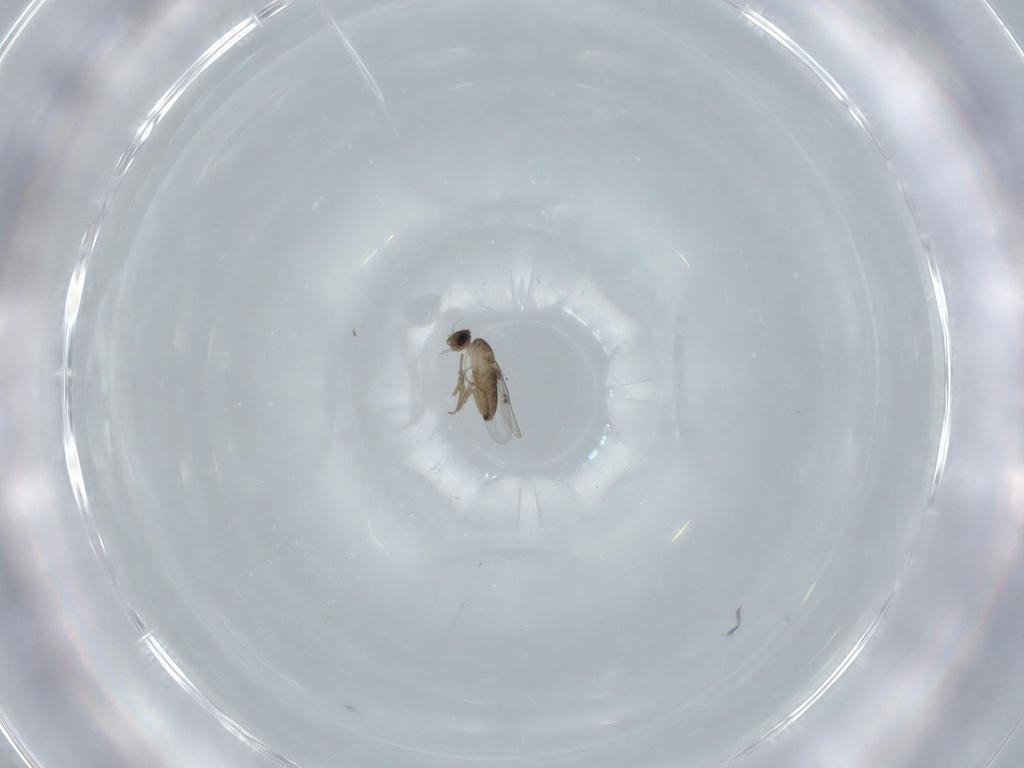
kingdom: Animalia
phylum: Arthropoda
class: Insecta
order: Diptera
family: Phoridae
